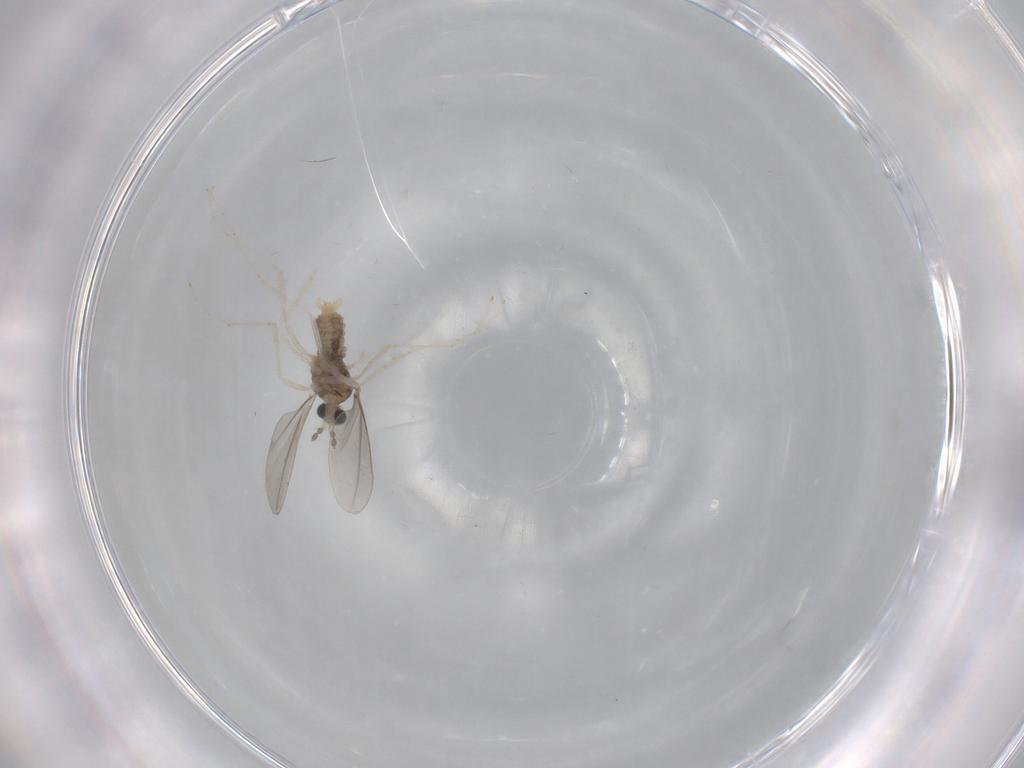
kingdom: Animalia
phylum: Arthropoda
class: Insecta
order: Diptera
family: Cecidomyiidae
